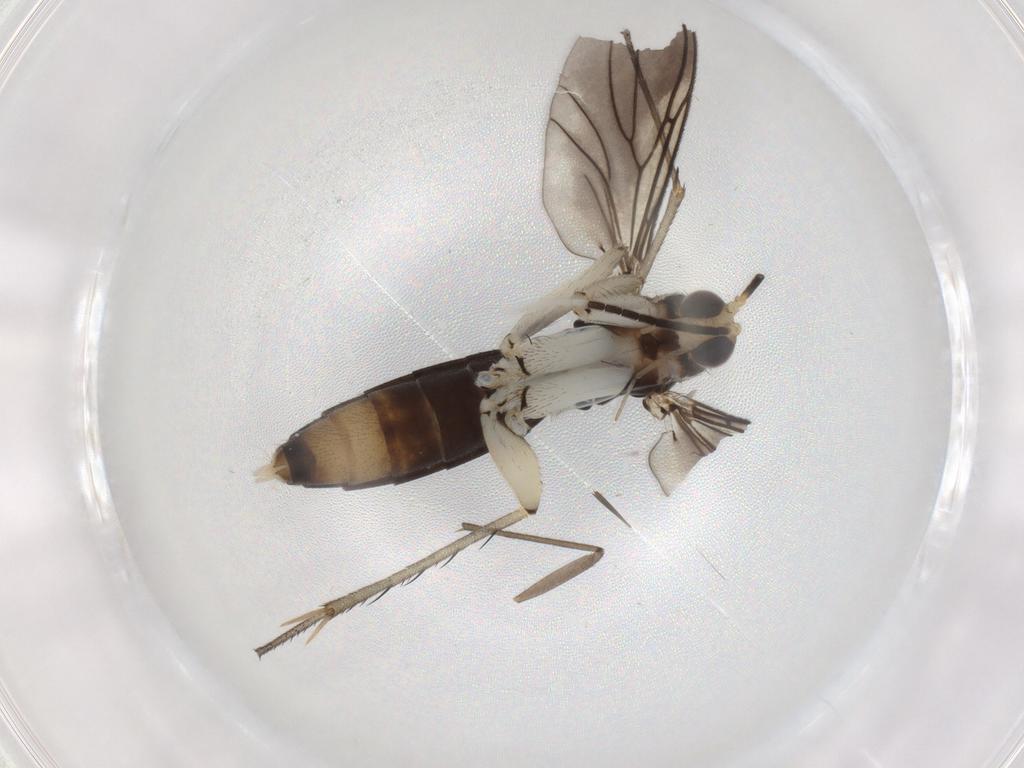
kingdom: Animalia
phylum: Arthropoda
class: Insecta
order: Diptera
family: Mycetophilidae
